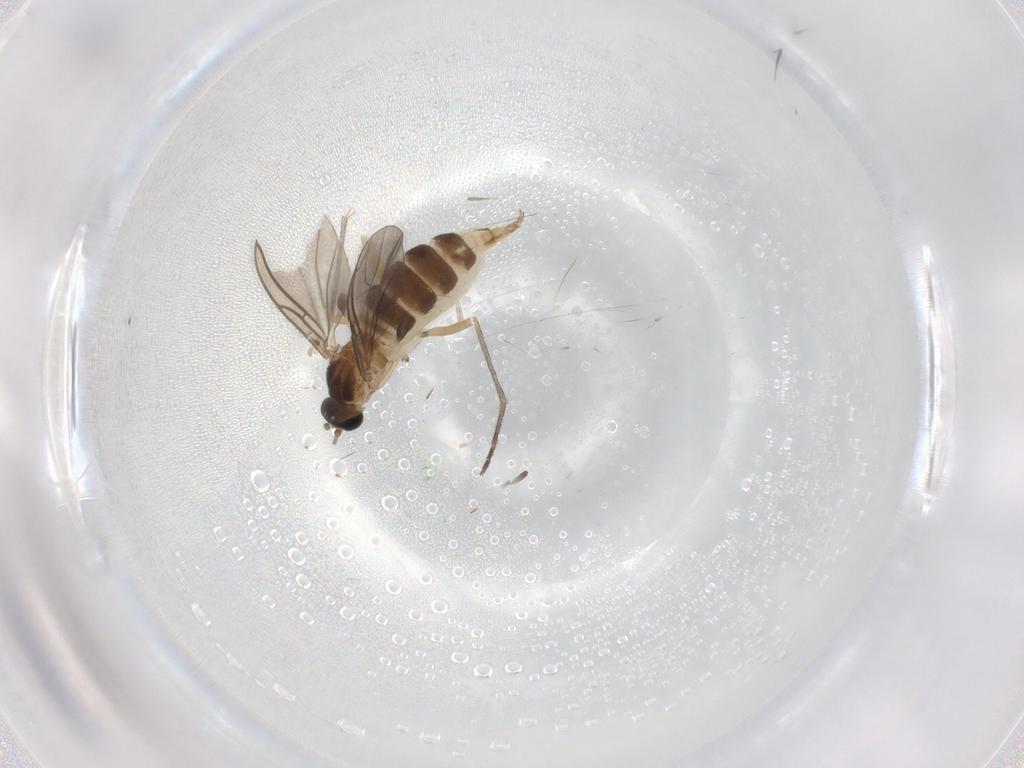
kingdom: Animalia
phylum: Arthropoda
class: Insecta
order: Diptera
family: Sciaridae
